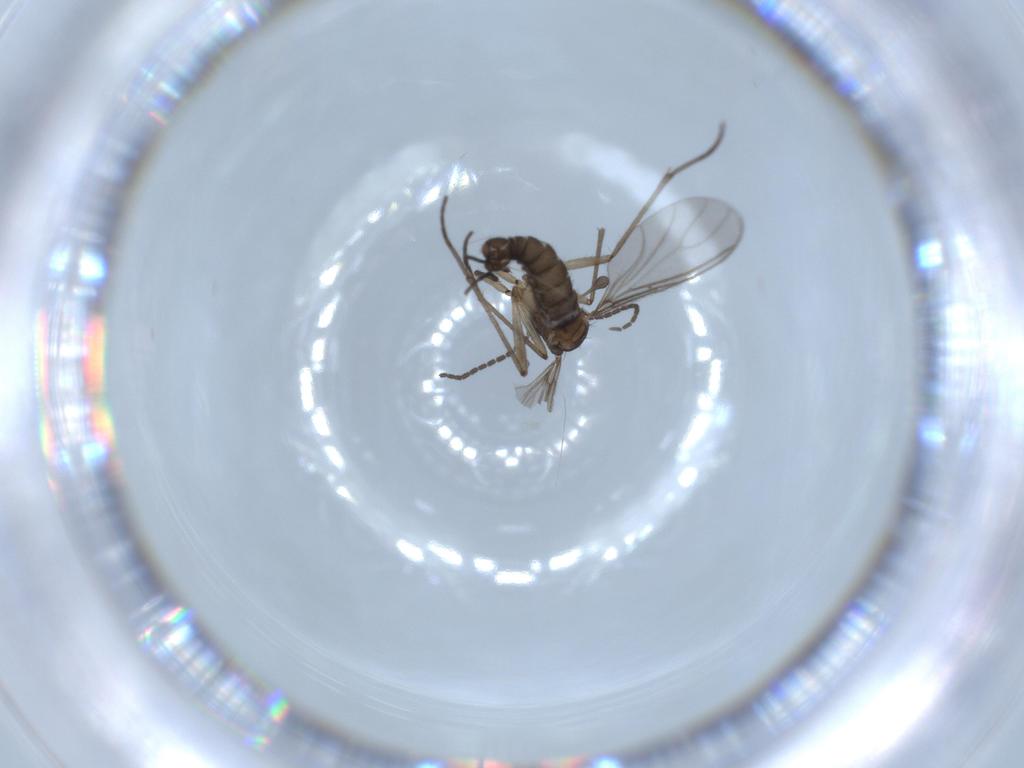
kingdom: Animalia
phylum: Arthropoda
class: Insecta
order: Diptera
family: Sciaridae
